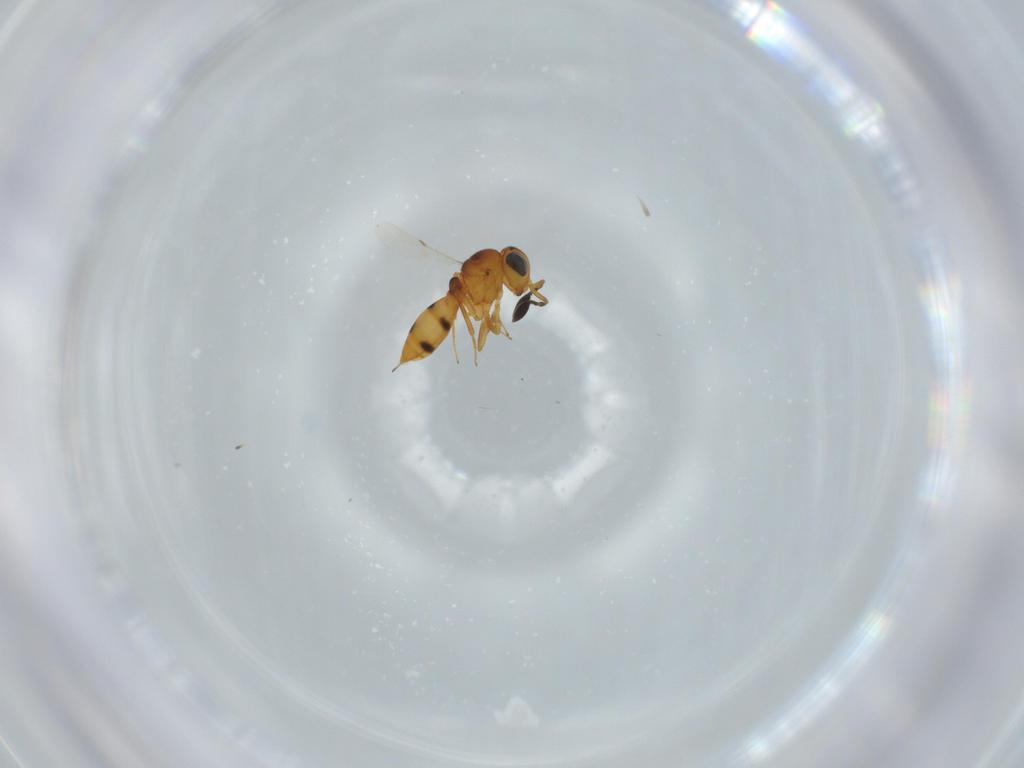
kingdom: Animalia
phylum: Arthropoda
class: Insecta
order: Hymenoptera
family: Scelionidae
